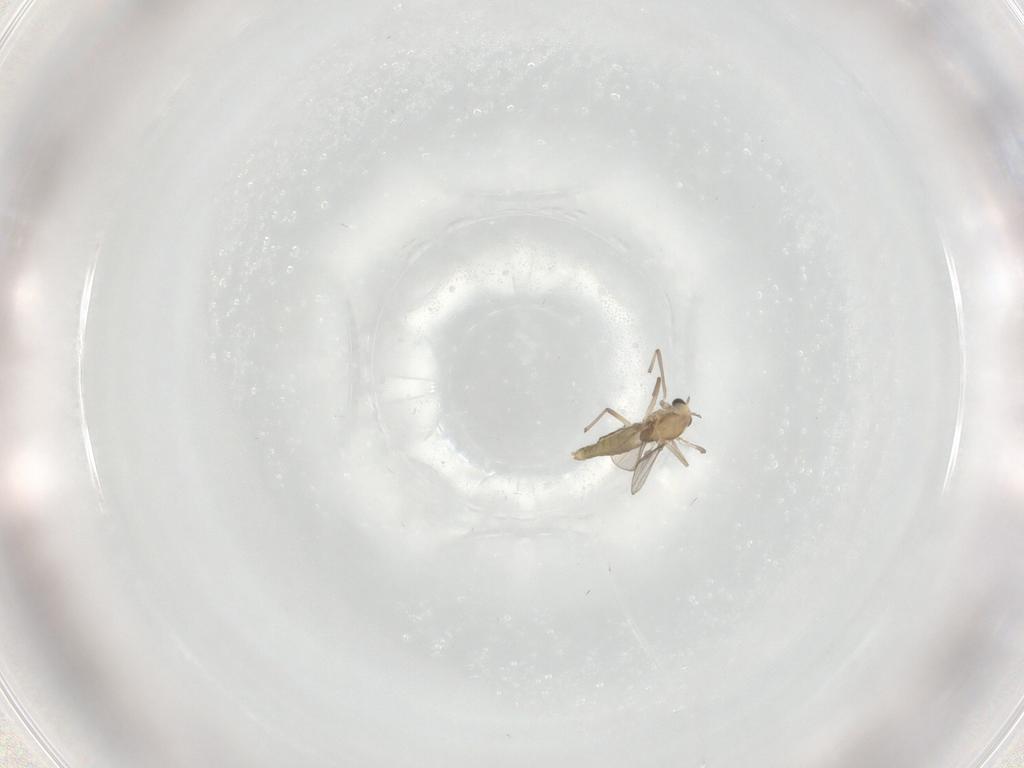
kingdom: Animalia
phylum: Arthropoda
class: Insecta
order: Diptera
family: Chironomidae
